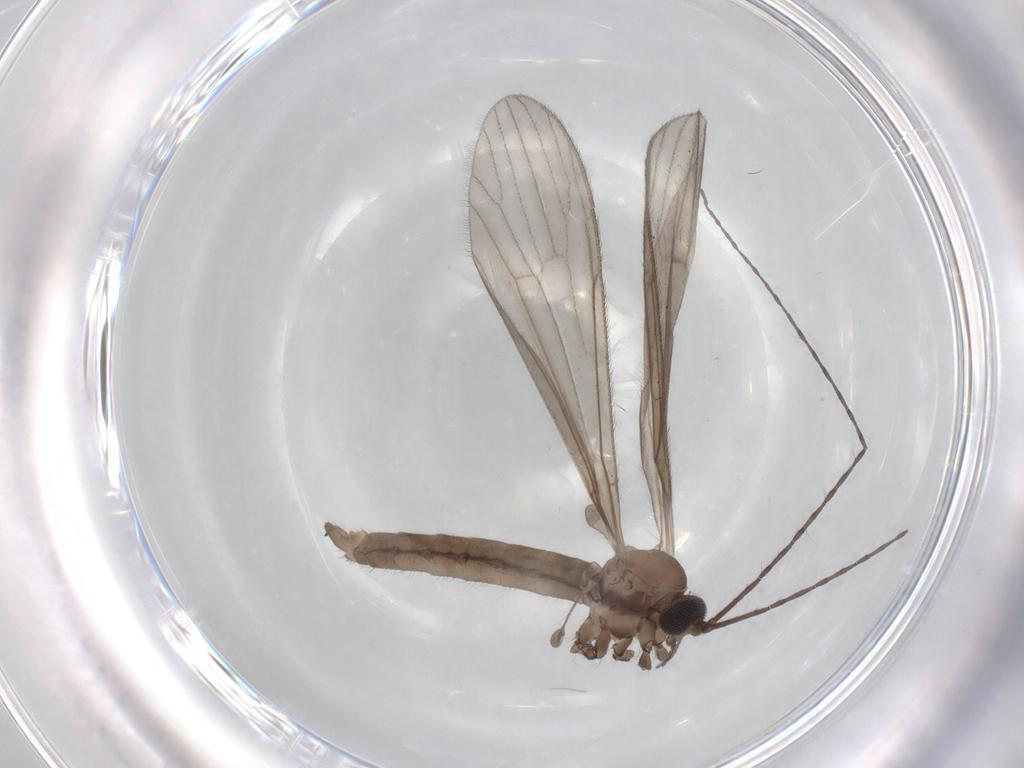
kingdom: Animalia
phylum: Arthropoda
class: Insecta
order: Diptera
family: Dolichopodidae
